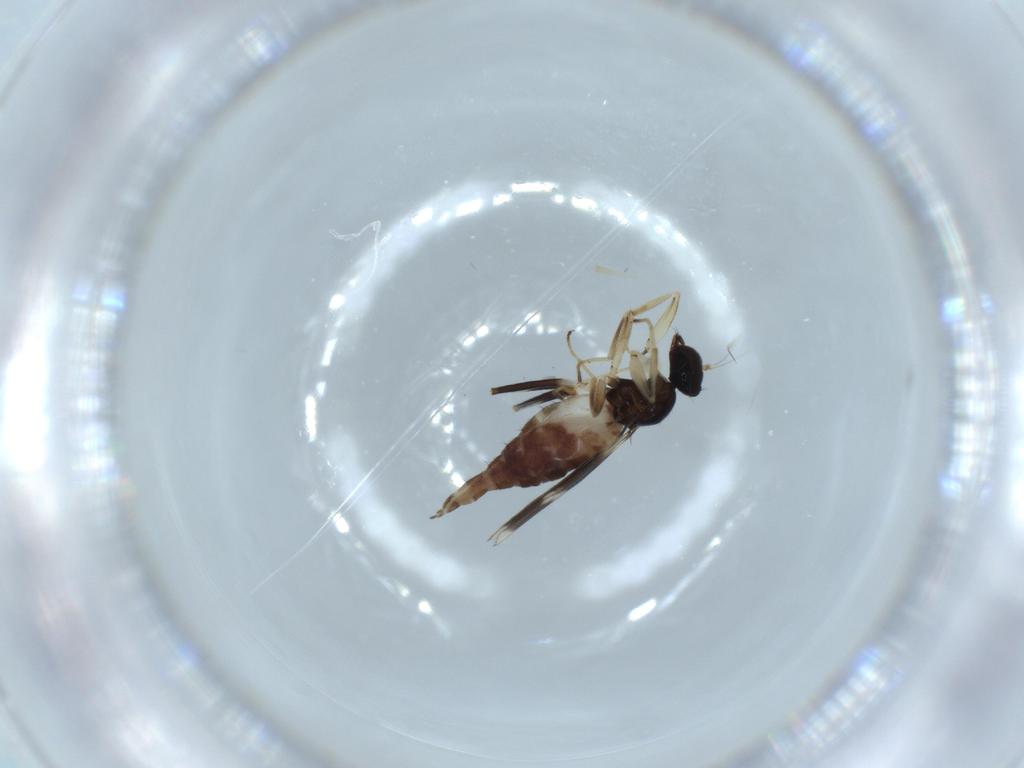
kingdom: Animalia
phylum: Arthropoda
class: Insecta
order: Diptera
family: Hybotidae
